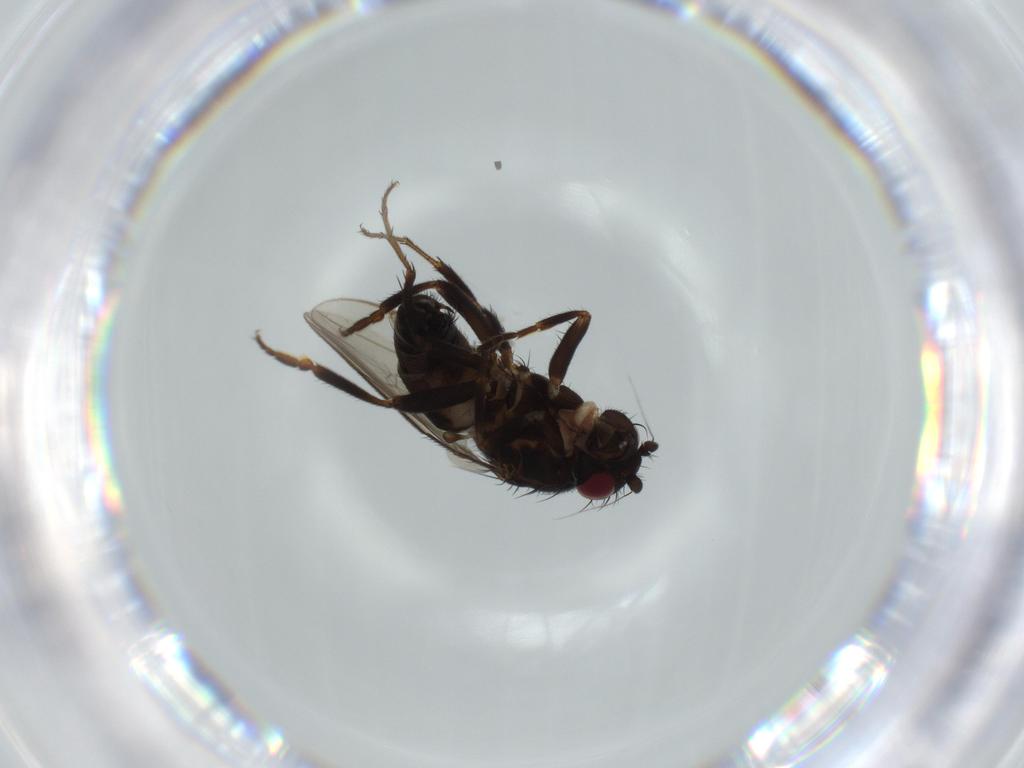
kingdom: Animalia
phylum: Arthropoda
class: Insecta
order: Diptera
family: Sphaeroceridae
